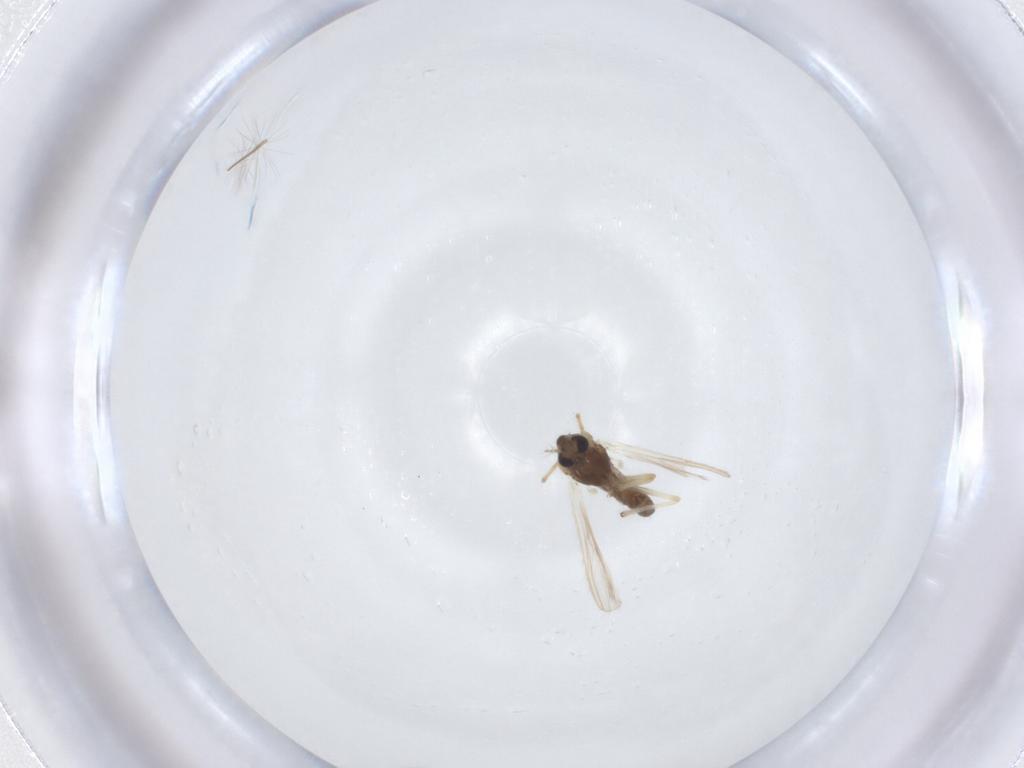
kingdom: Animalia
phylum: Arthropoda
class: Insecta
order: Diptera
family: Chironomidae
